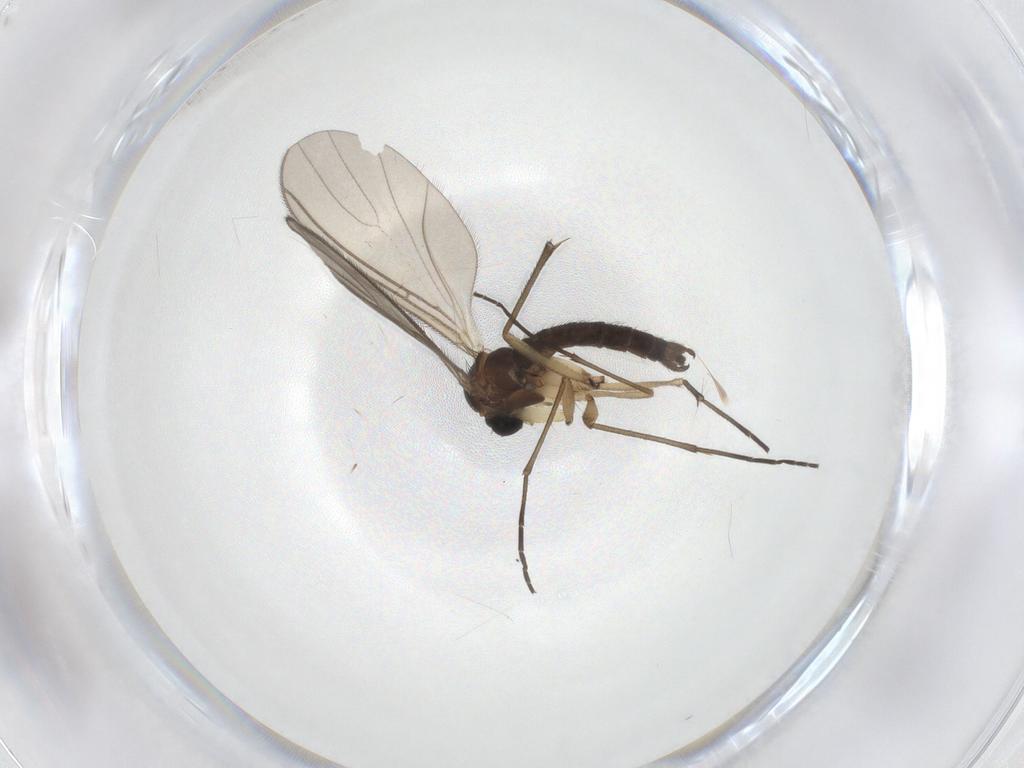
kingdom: Animalia
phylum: Arthropoda
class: Insecta
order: Diptera
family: Sciaridae
